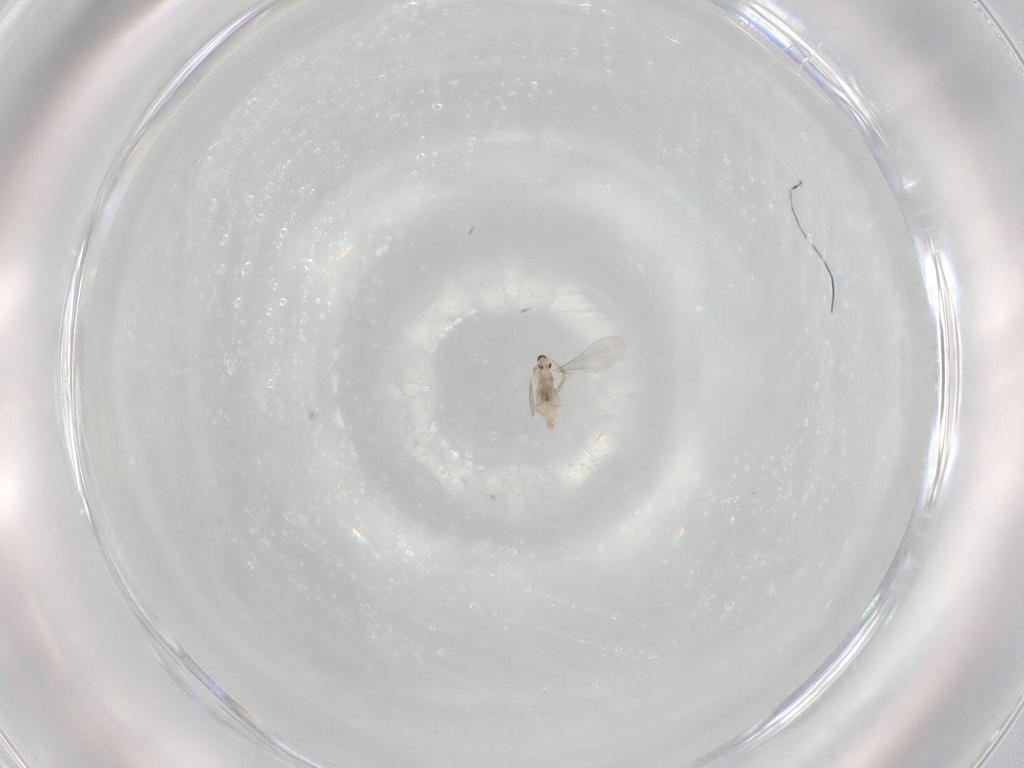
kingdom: Animalia
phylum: Arthropoda
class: Insecta
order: Diptera
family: Cecidomyiidae
